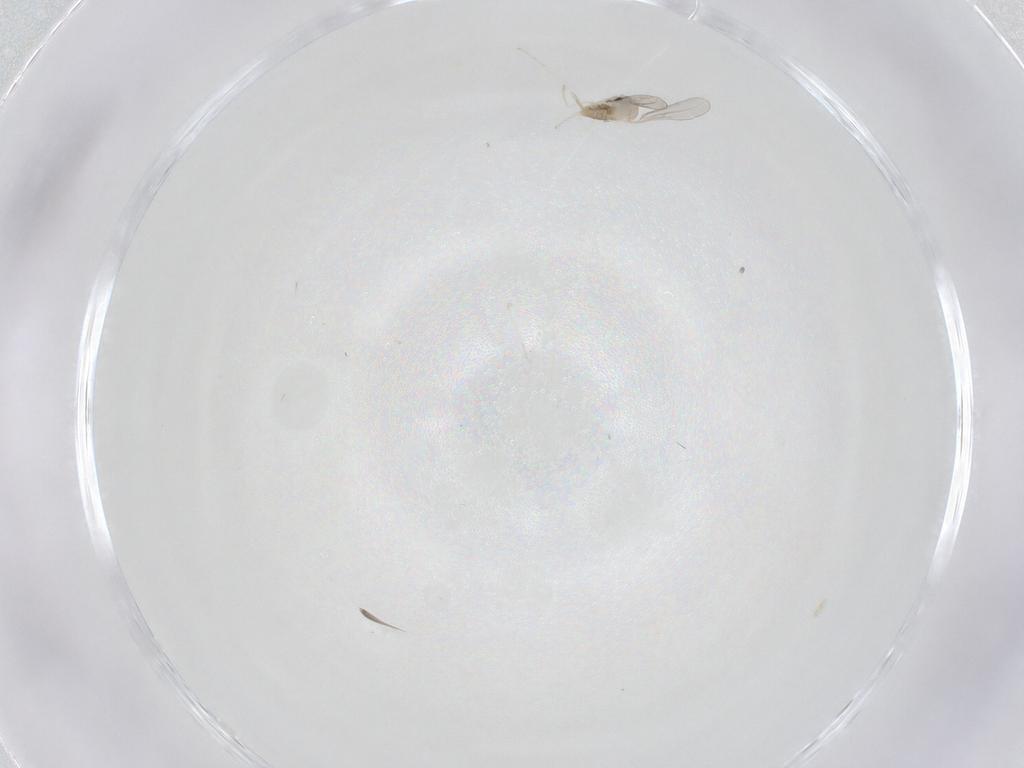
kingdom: Animalia
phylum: Arthropoda
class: Insecta
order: Diptera
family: Cecidomyiidae
